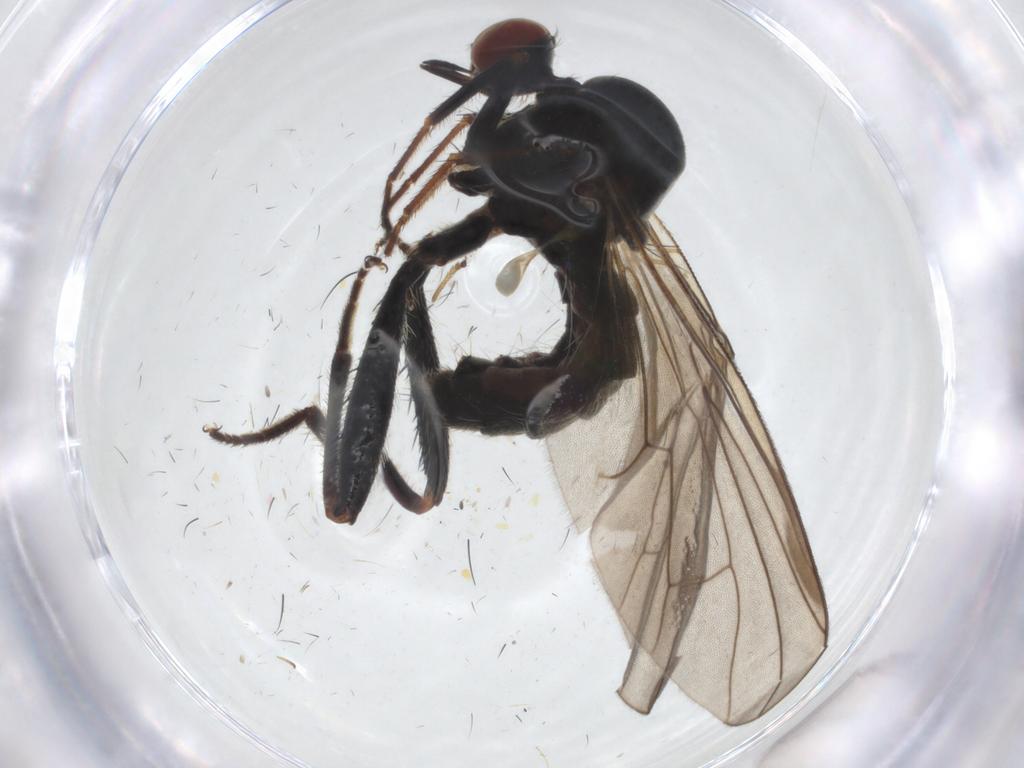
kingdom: Animalia
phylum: Arthropoda
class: Insecta
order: Diptera
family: Hybotidae
